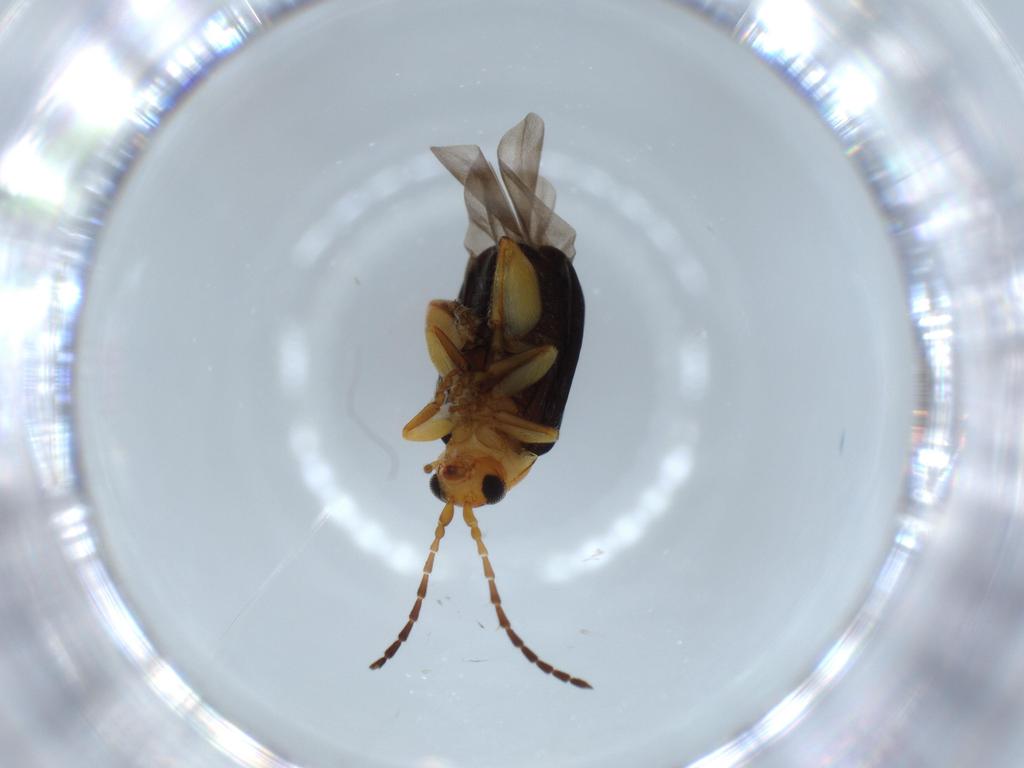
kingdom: Animalia
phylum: Arthropoda
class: Insecta
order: Coleoptera
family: Chrysomelidae
